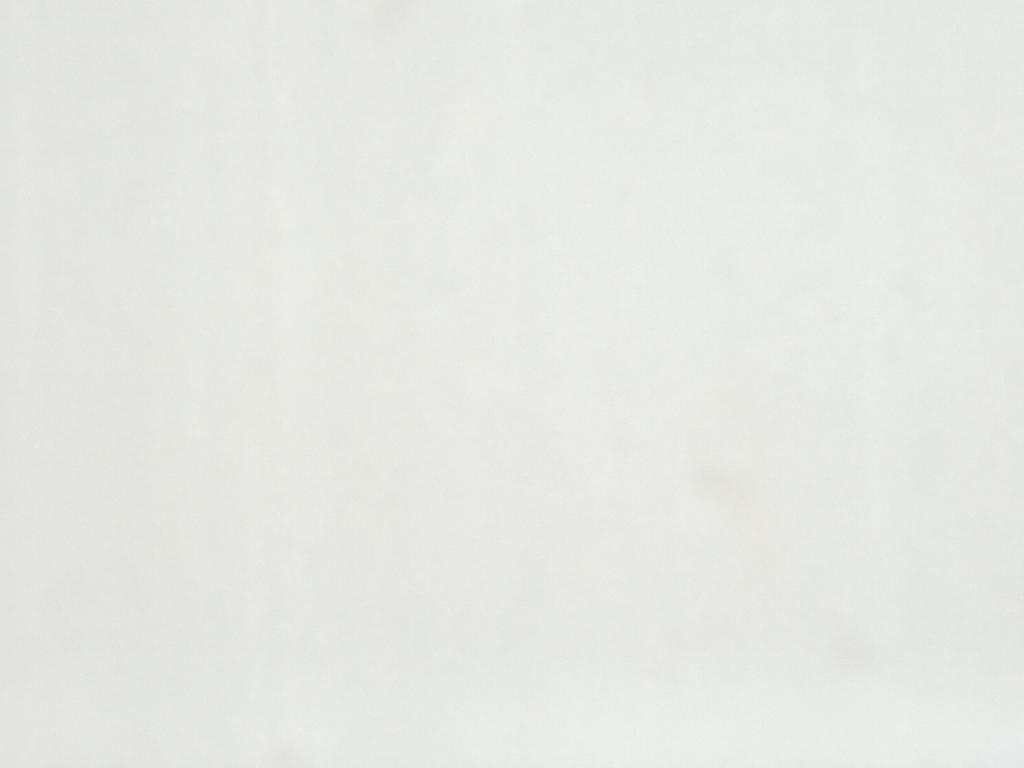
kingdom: Animalia
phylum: Arthropoda
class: Insecta
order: Diptera
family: Hybotidae
